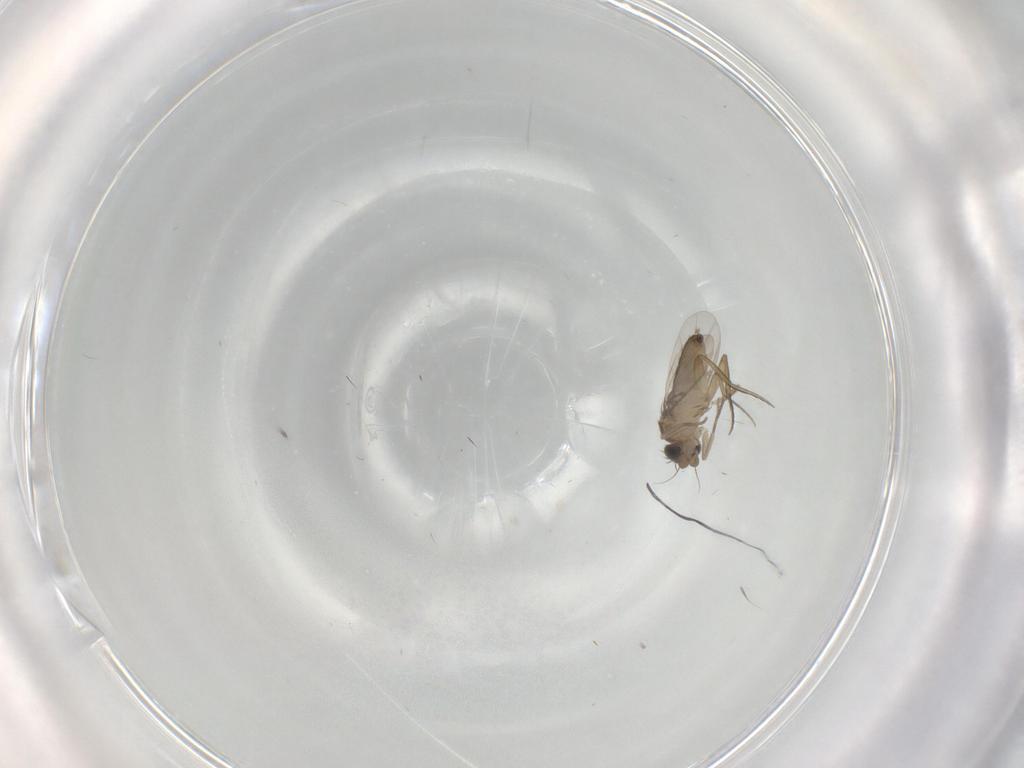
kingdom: Animalia
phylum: Arthropoda
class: Insecta
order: Diptera
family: Phoridae
